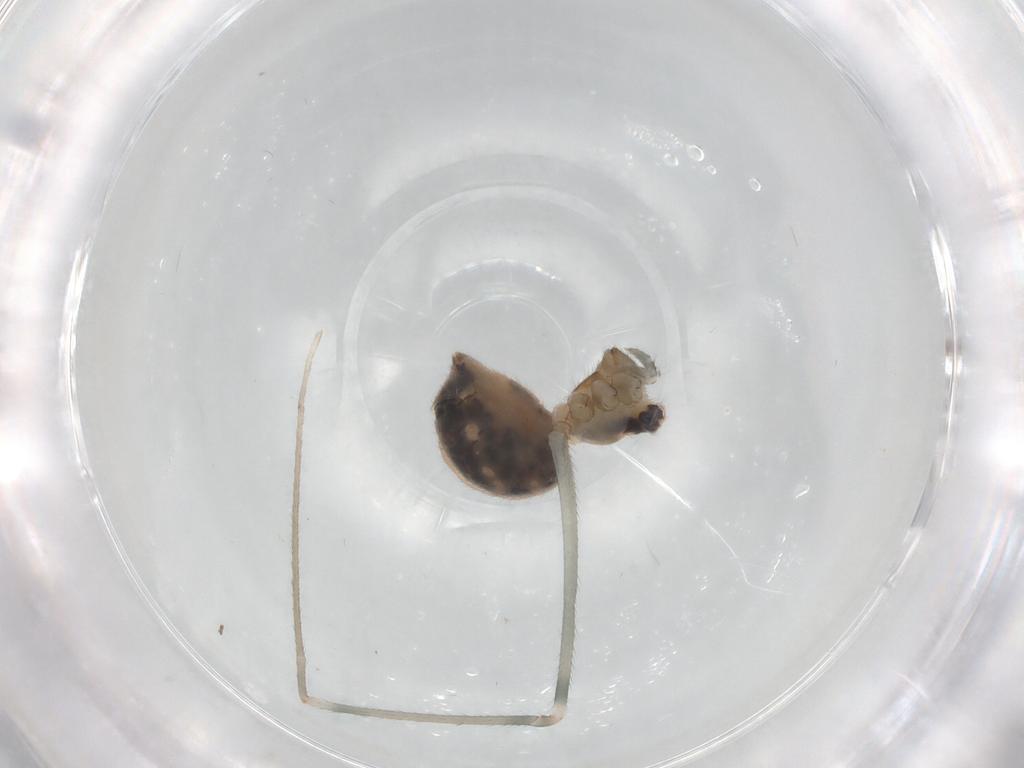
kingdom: Animalia
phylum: Arthropoda
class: Arachnida
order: Araneae
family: Pholcidae
